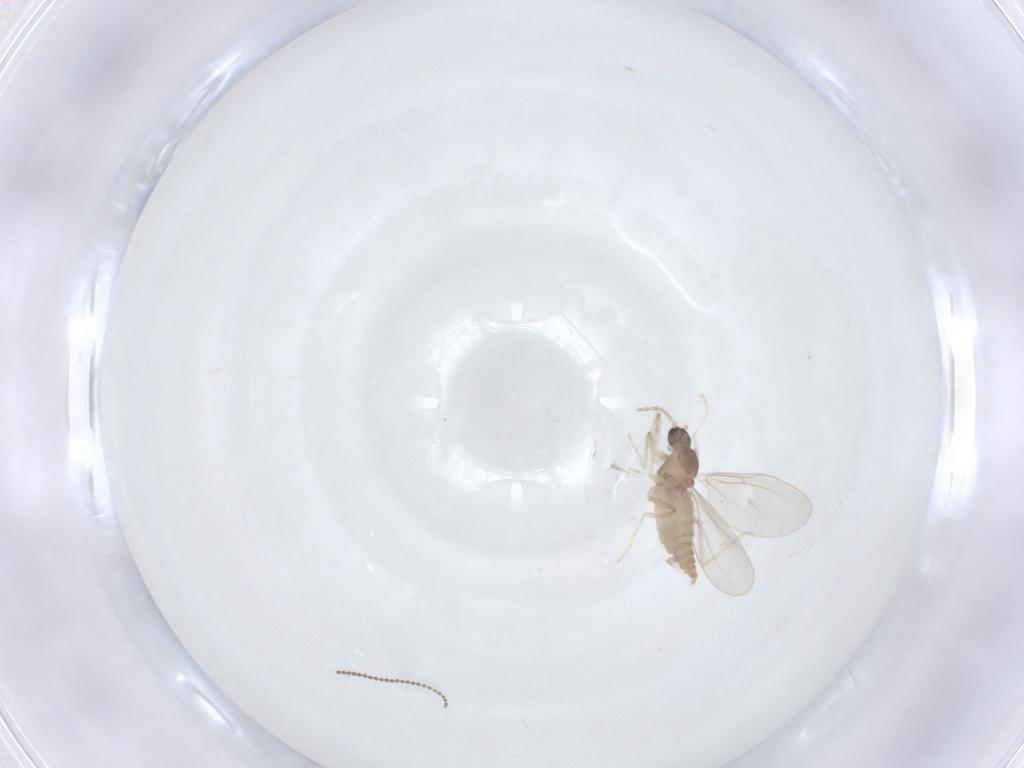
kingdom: Animalia
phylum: Arthropoda
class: Insecta
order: Diptera
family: Cecidomyiidae
